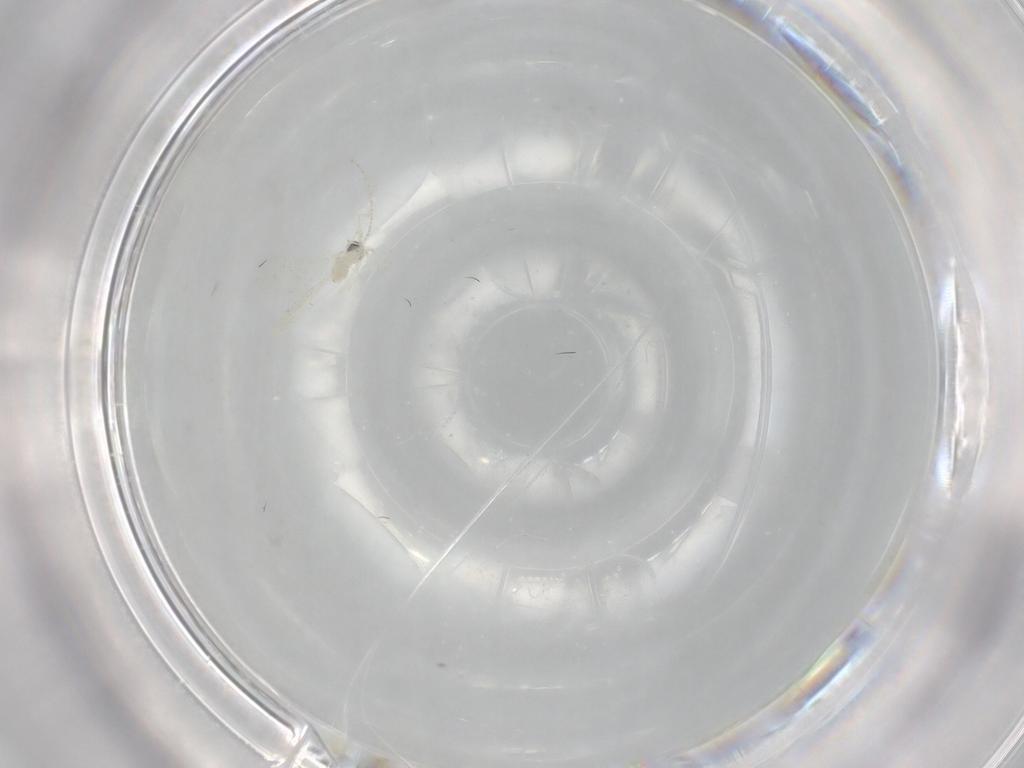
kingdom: Animalia
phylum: Arthropoda
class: Insecta
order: Diptera
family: Cecidomyiidae
